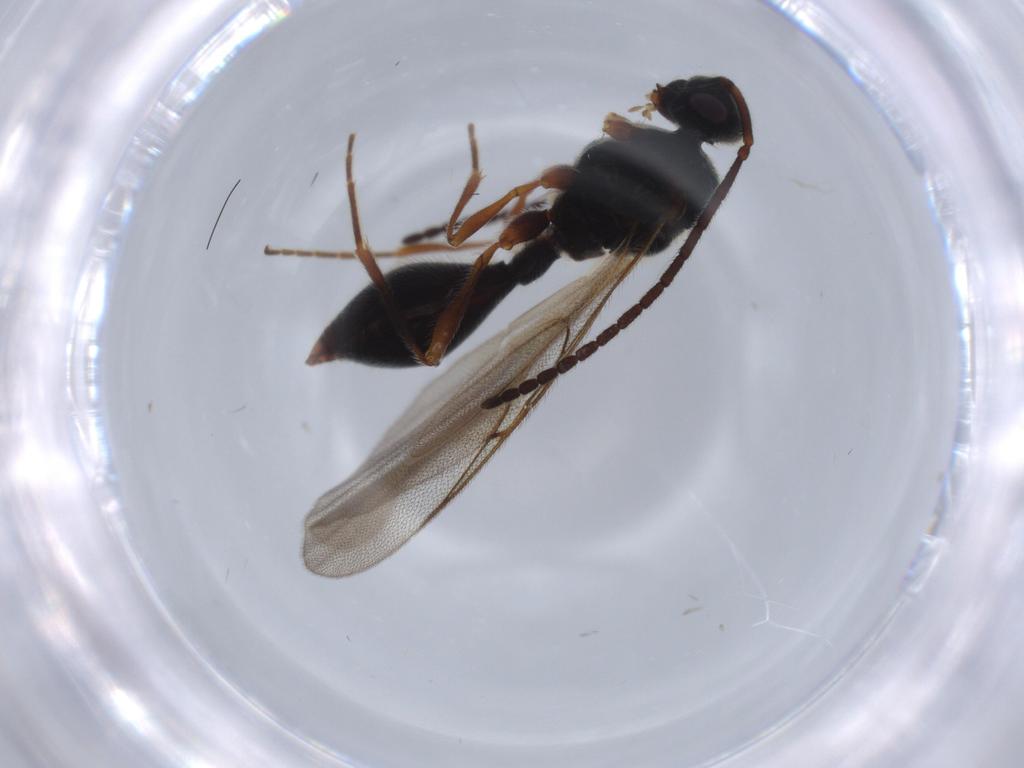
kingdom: Animalia
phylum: Arthropoda
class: Insecta
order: Hymenoptera
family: Diapriidae
